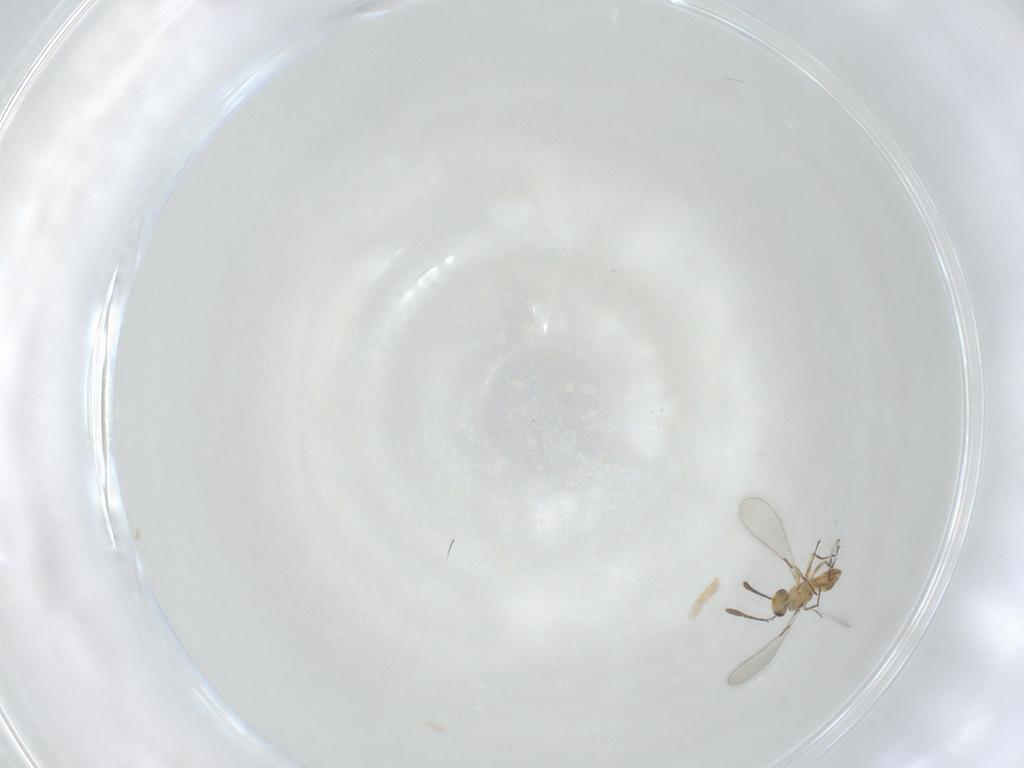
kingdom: Animalia
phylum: Arthropoda
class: Insecta
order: Hymenoptera
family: Mymaridae
